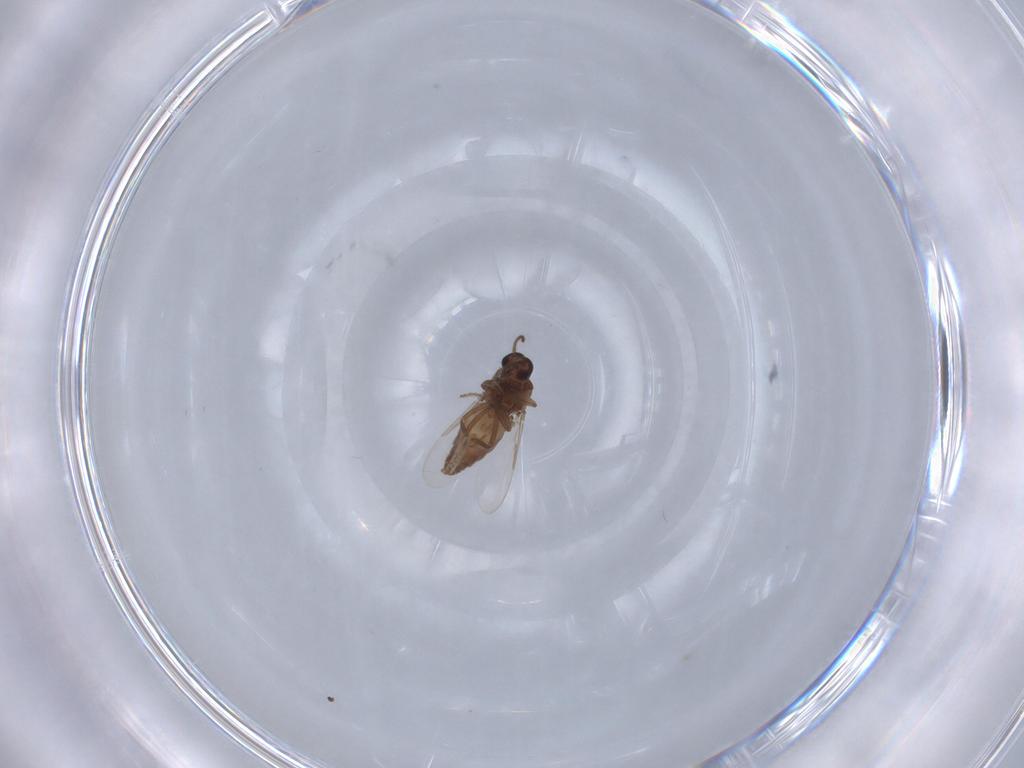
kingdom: Animalia
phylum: Arthropoda
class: Insecta
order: Diptera
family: Ceratopogonidae
